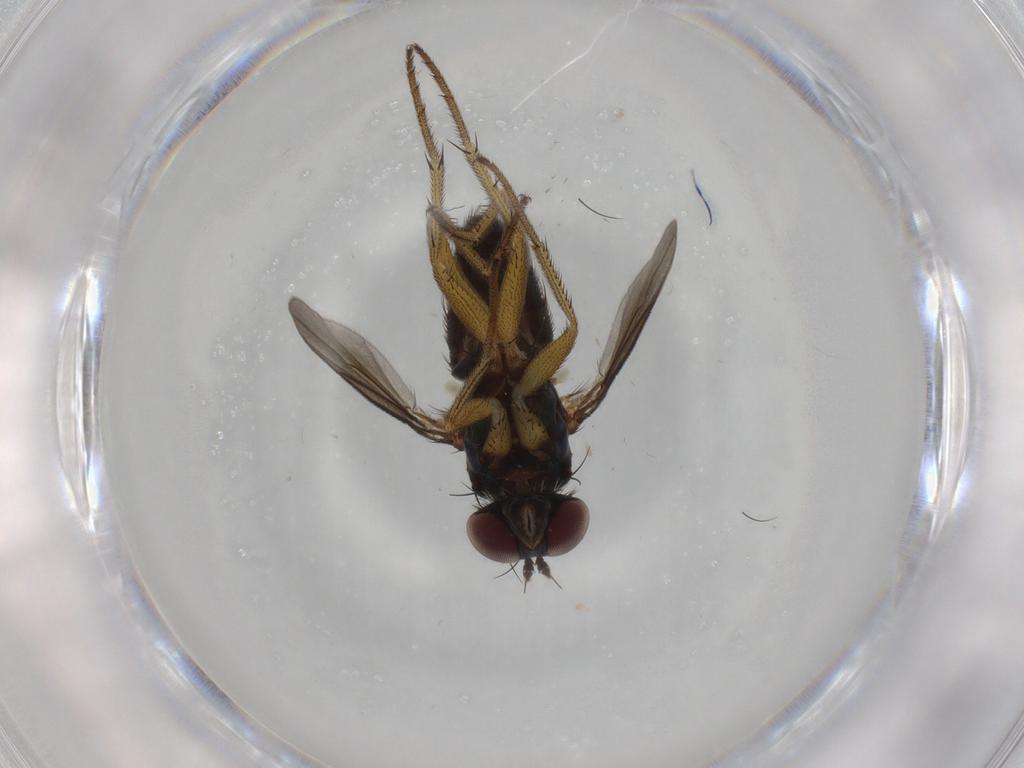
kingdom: Animalia
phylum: Arthropoda
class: Insecta
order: Diptera
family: Dolichopodidae
